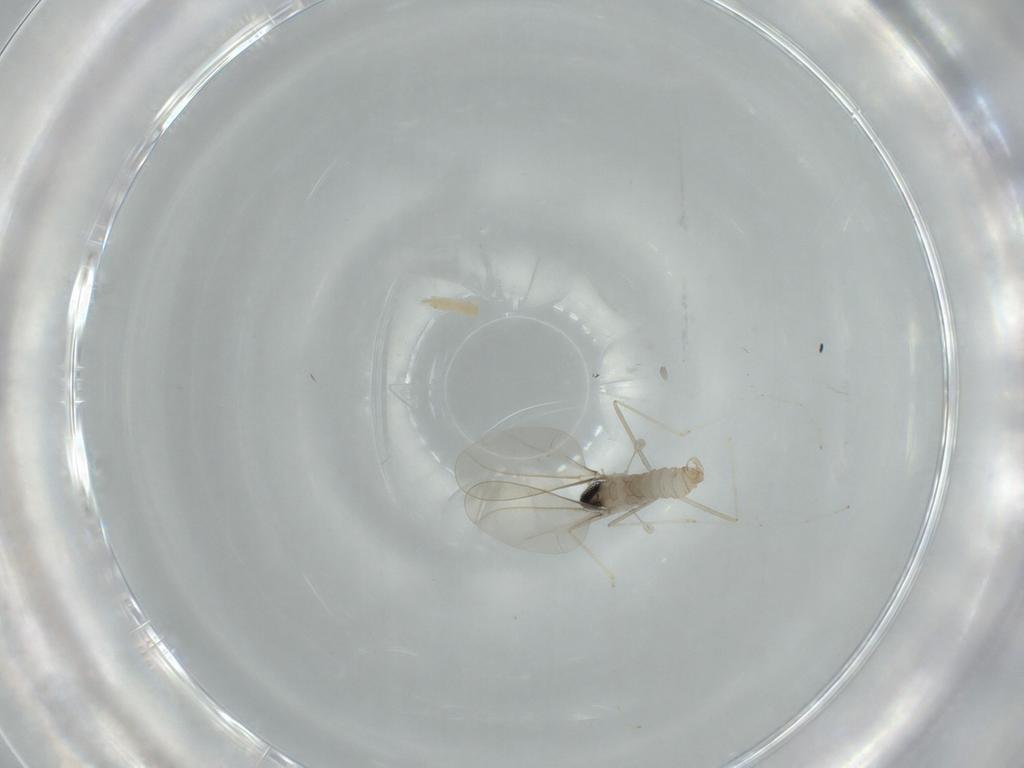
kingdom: Animalia
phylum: Arthropoda
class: Insecta
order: Diptera
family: Cecidomyiidae
